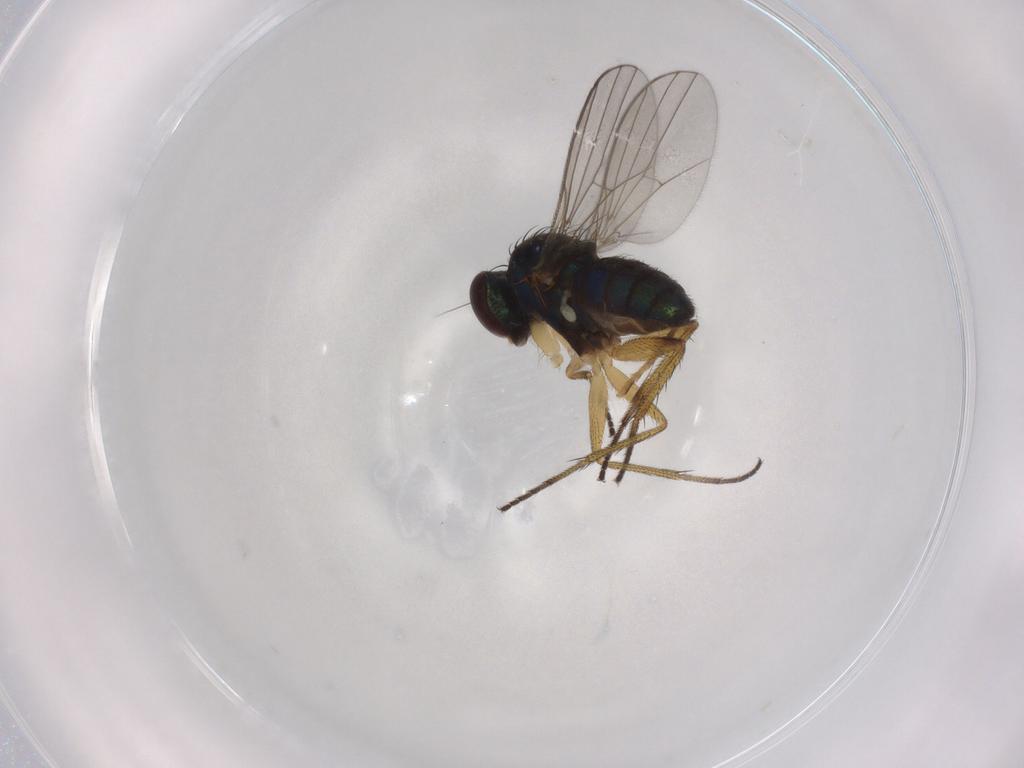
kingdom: Animalia
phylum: Arthropoda
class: Insecta
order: Diptera
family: Dolichopodidae
